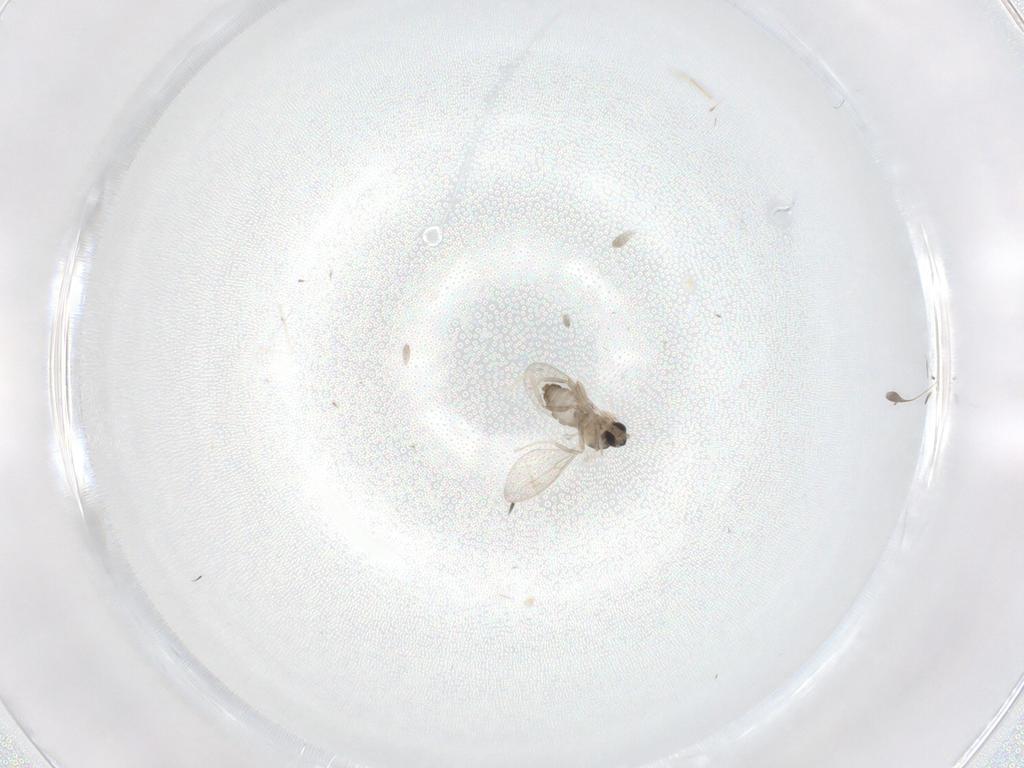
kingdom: Animalia
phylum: Arthropoda
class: Insecta
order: Diptera
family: Cecidomyiidae
